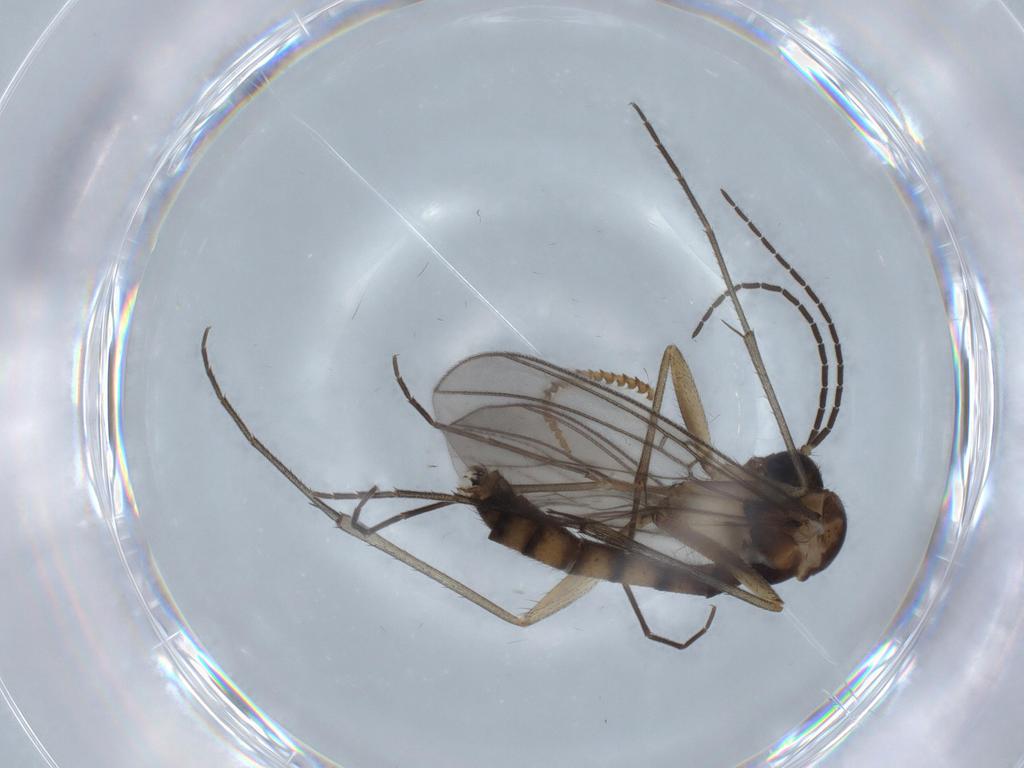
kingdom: Animalia
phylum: Arthropoda
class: Insecta
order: Diptera
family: Mycetophilidae
